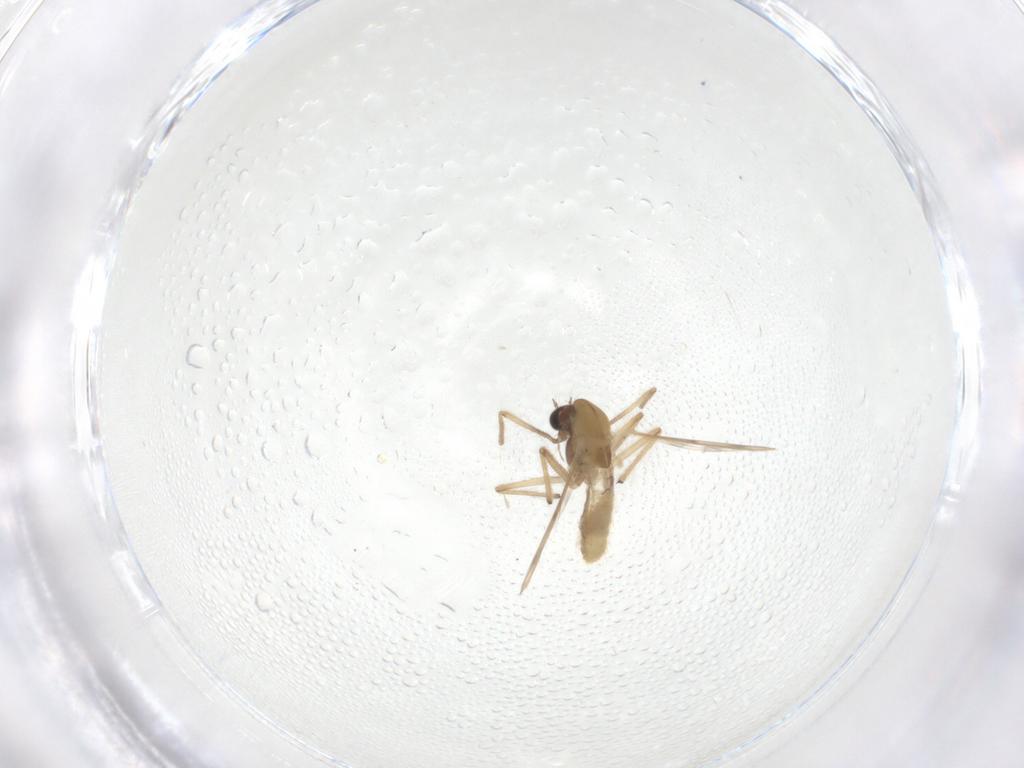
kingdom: Animalia
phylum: Arthropoda
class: Insecta
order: Diptera
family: Chironomidae
